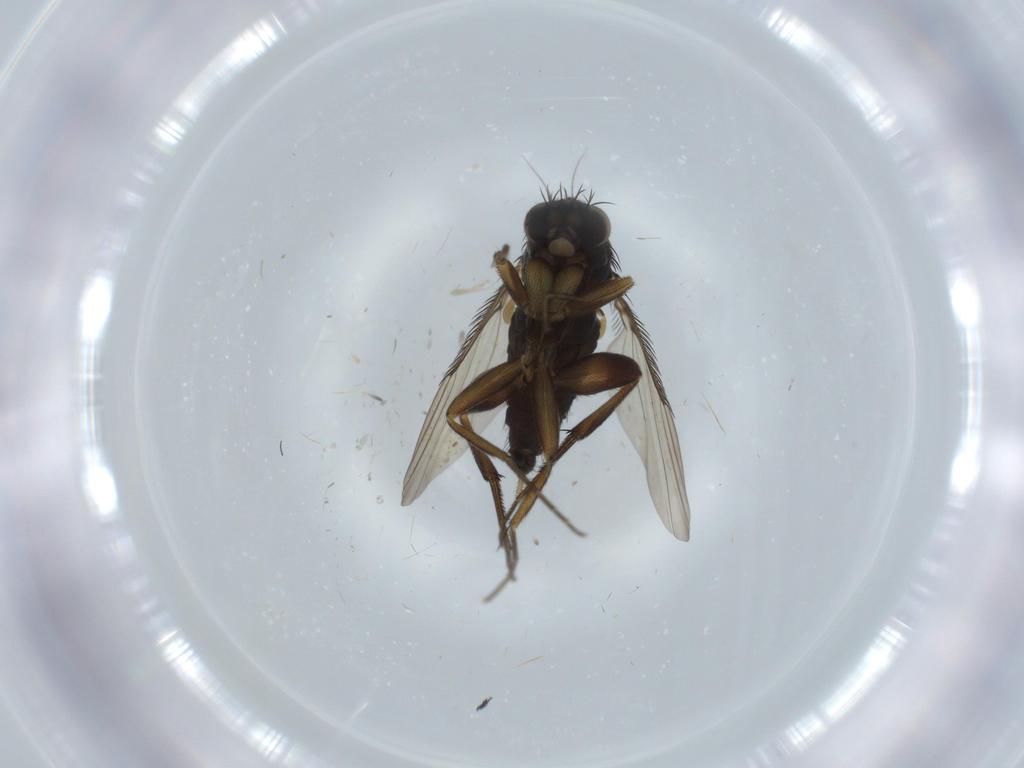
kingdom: Animalia
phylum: Arthropoda
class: Insecta
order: Diptera
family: Phoridae
